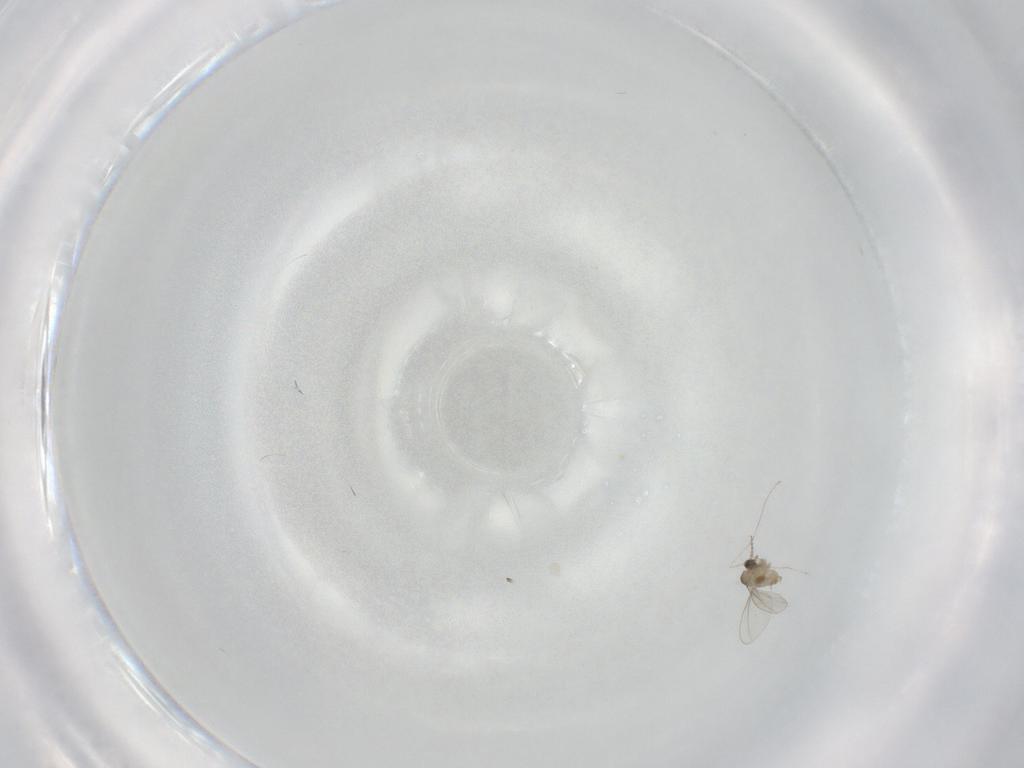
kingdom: Animalia
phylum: Arthropoda
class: Insecta
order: Diptera
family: Cecidomyiidae
